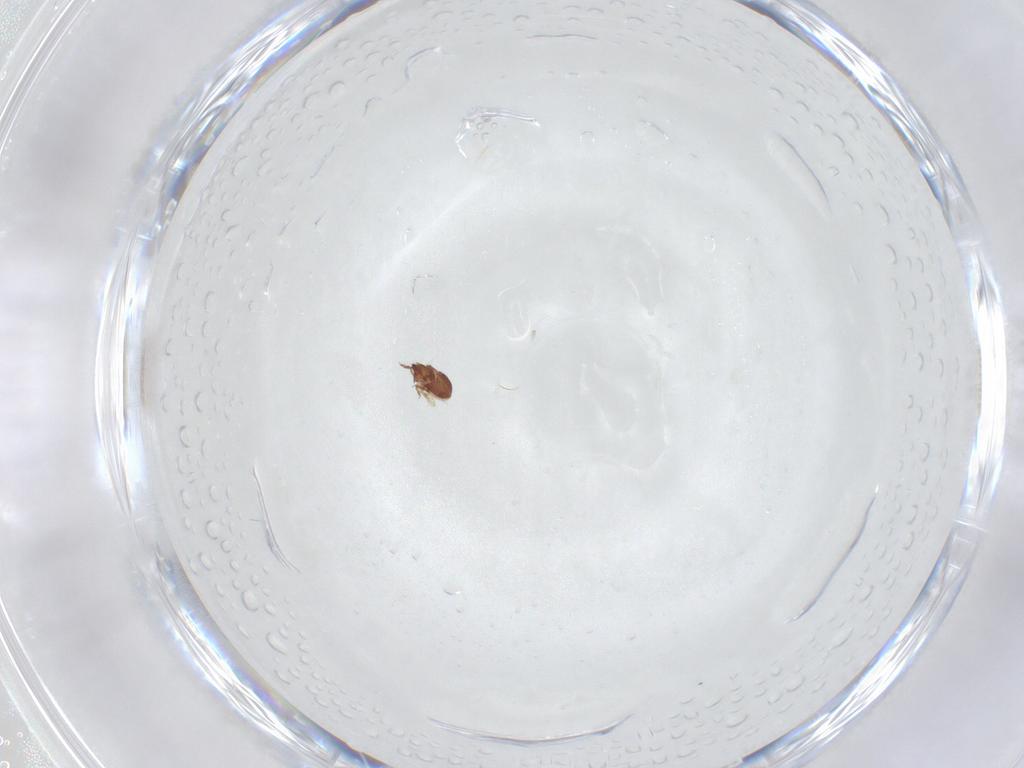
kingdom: Animalia
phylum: Arthropoda
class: Insecta
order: Diptera
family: Cecidomyiidae
